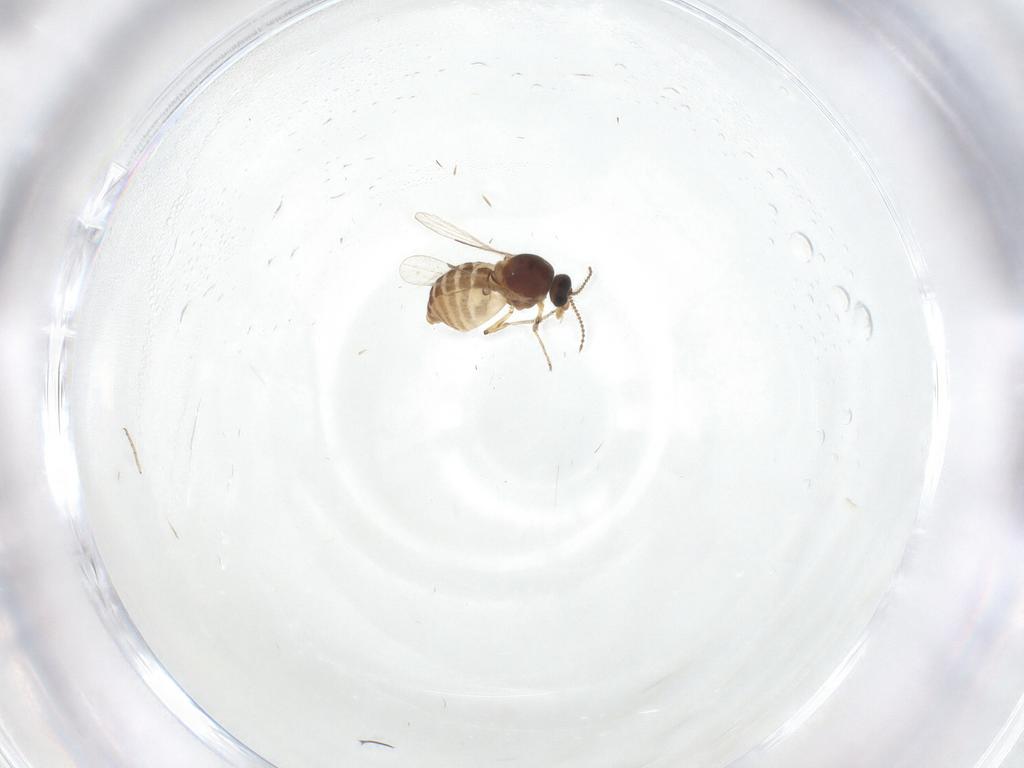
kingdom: Animalia
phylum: Arthropoda
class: Insecta
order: Diptera
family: Ceratopogonidae
